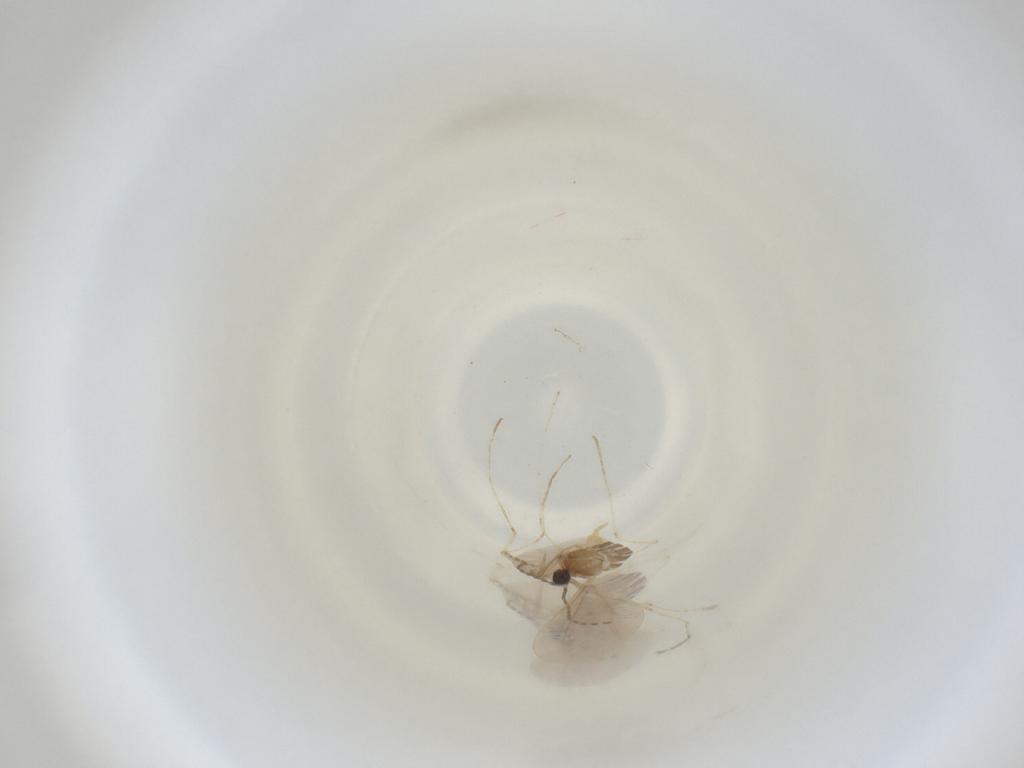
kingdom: Animalia
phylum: Arthropoda
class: Insecta
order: Diptera
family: Cecidomyiidae
